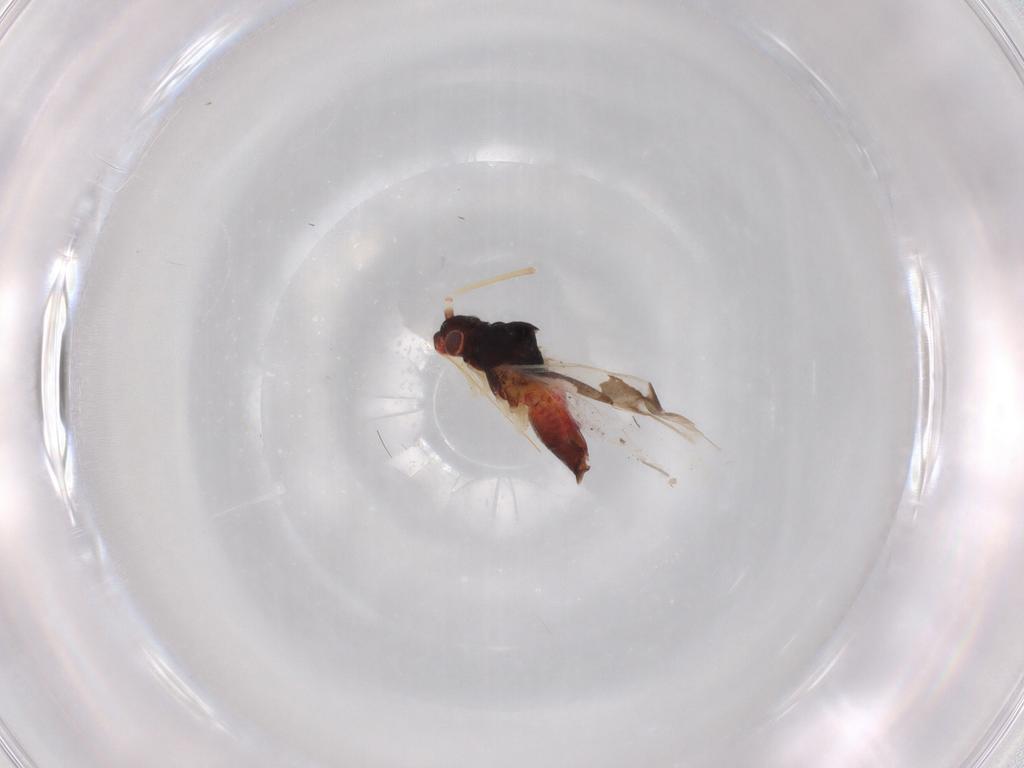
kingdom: Animalia
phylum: Arthropoda
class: Insecta
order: Hemiptera
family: Aleyrodidae
